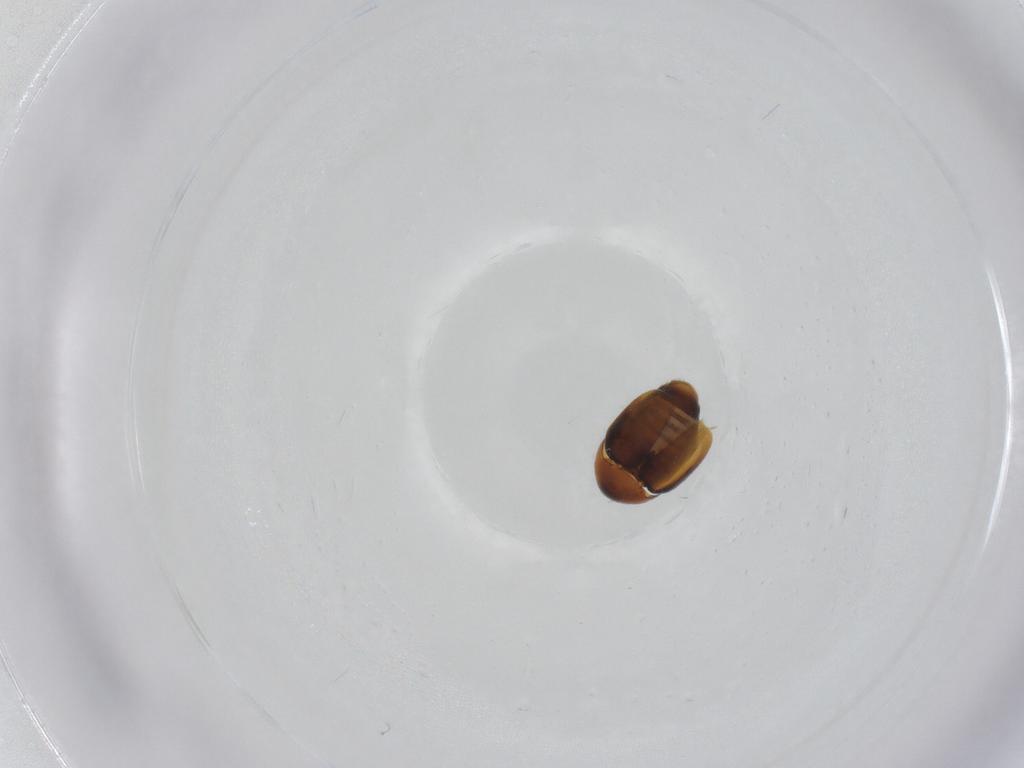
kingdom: Animalia
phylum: Arthropoda
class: Insecta
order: Coleoptera
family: Corylophidae
